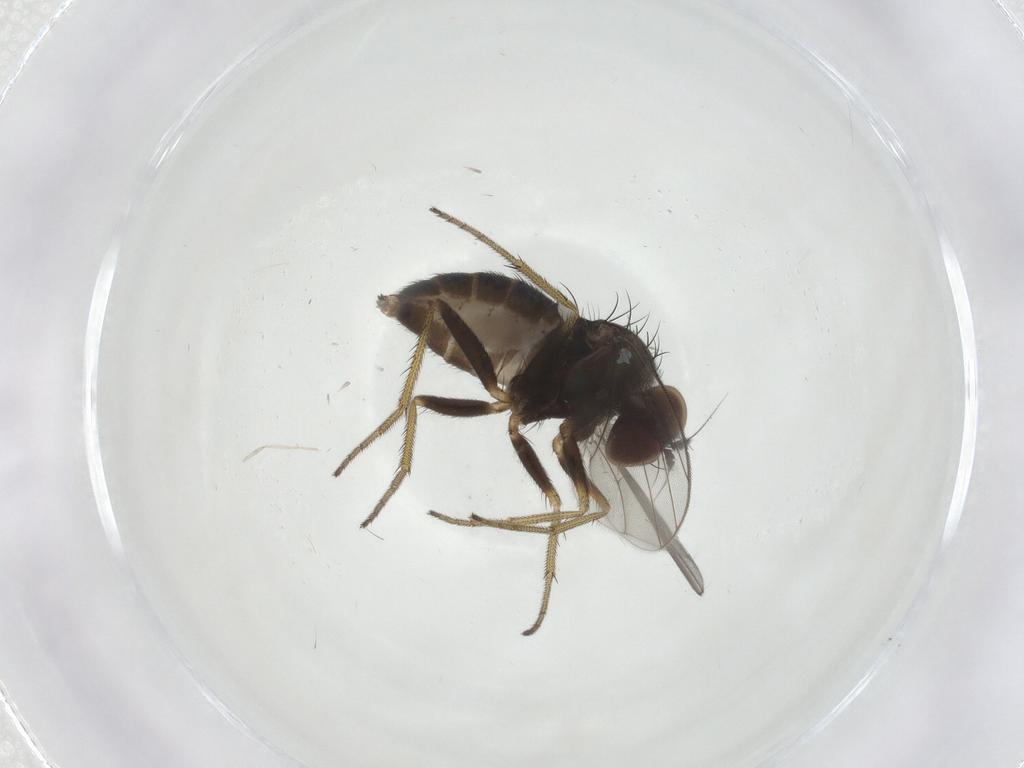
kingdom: Animalia
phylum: Arthropoda
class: Insecta
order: Diptera
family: Cecidomyiidae
